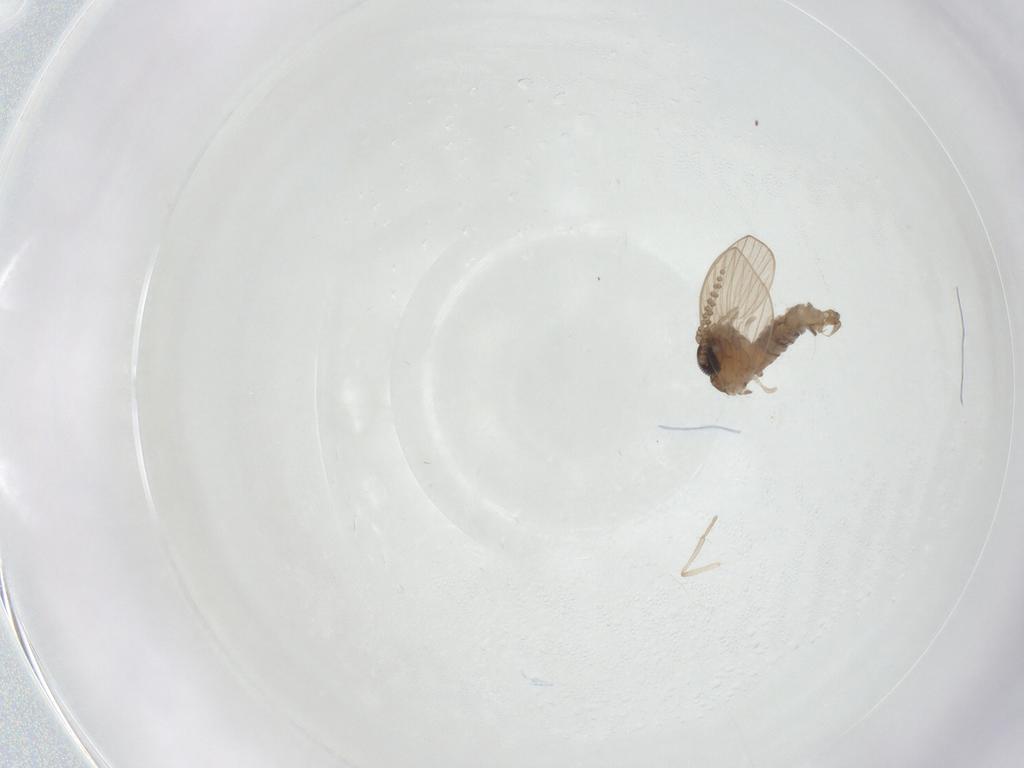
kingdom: Animalia
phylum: Arthropoda
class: Insecta
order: Diptera
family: Psychodidae
